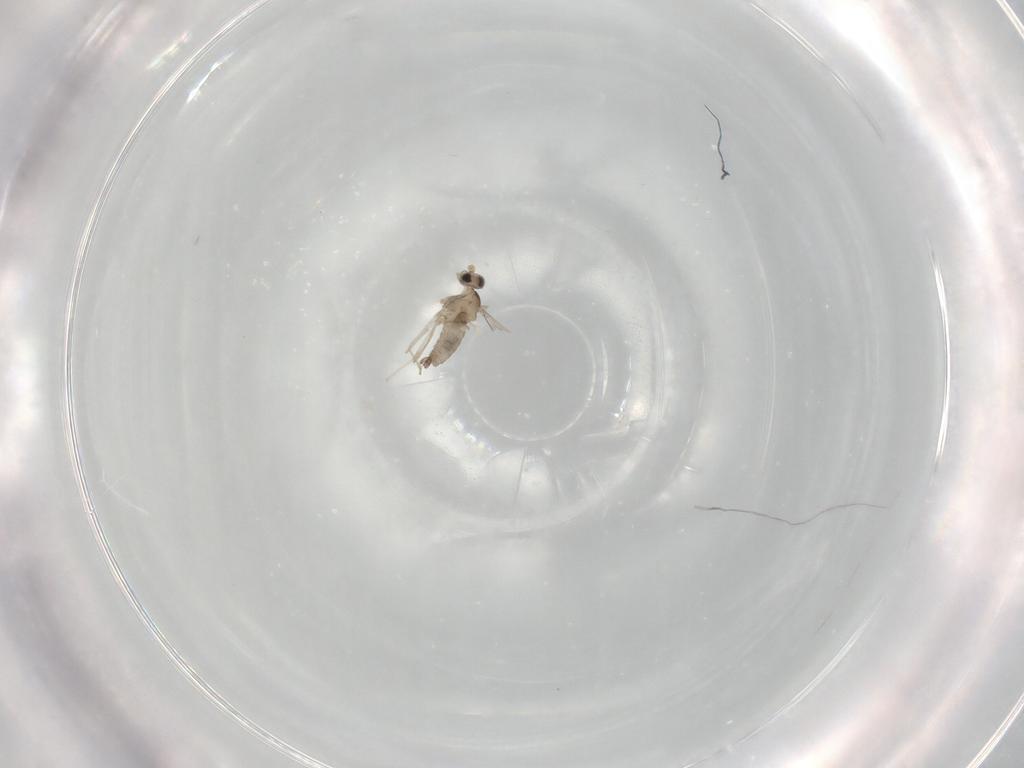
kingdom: Animalia
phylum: Arthropoda
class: Insecta
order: Diptera
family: Cecidomyiidae
